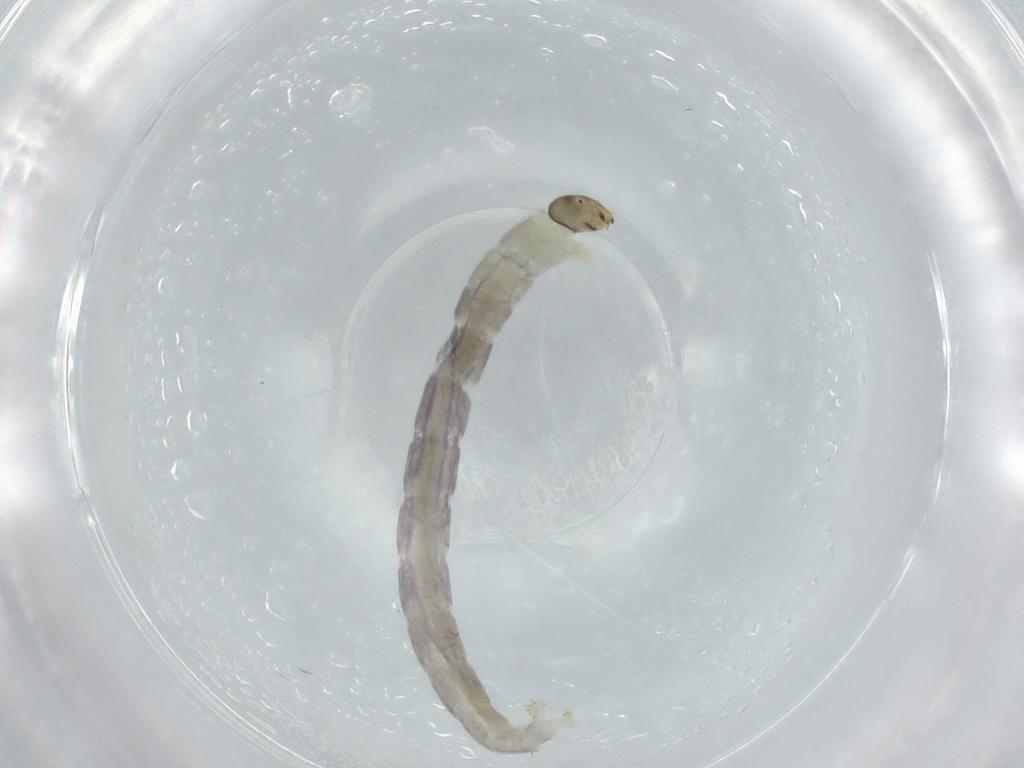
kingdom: Animalia
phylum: Arthropoda
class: Insecta
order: Diptera
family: Chironomidae
